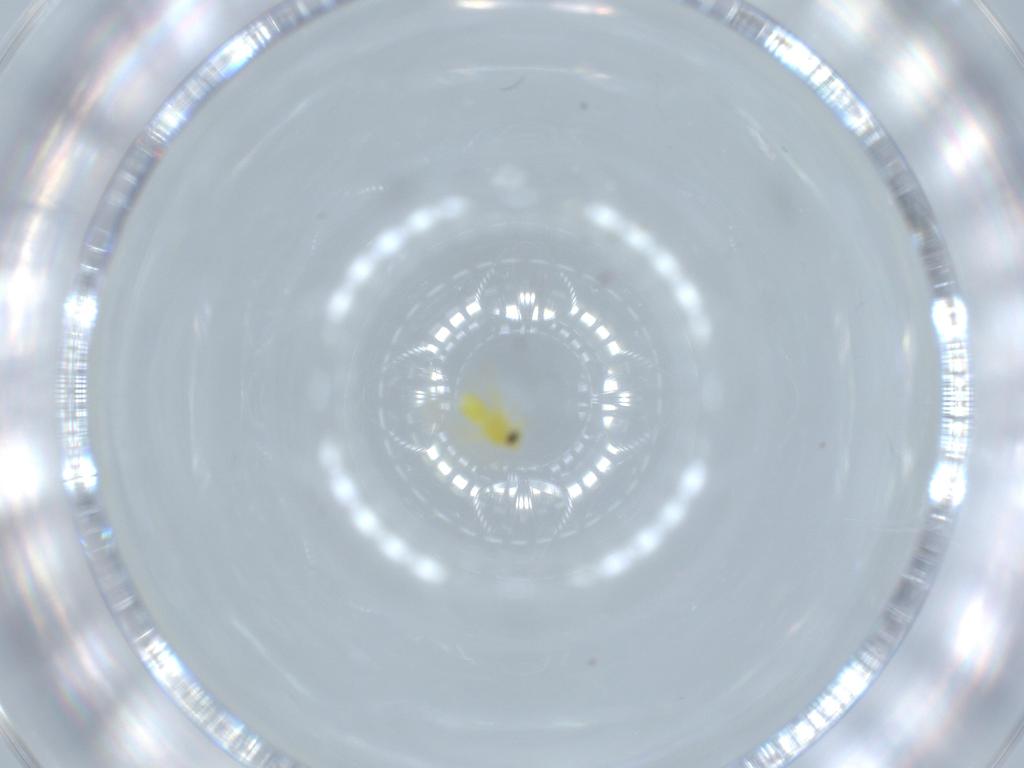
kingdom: Animalia
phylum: Arthropoda
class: Insecta
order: Hemiptera
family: Aleyrodidae
